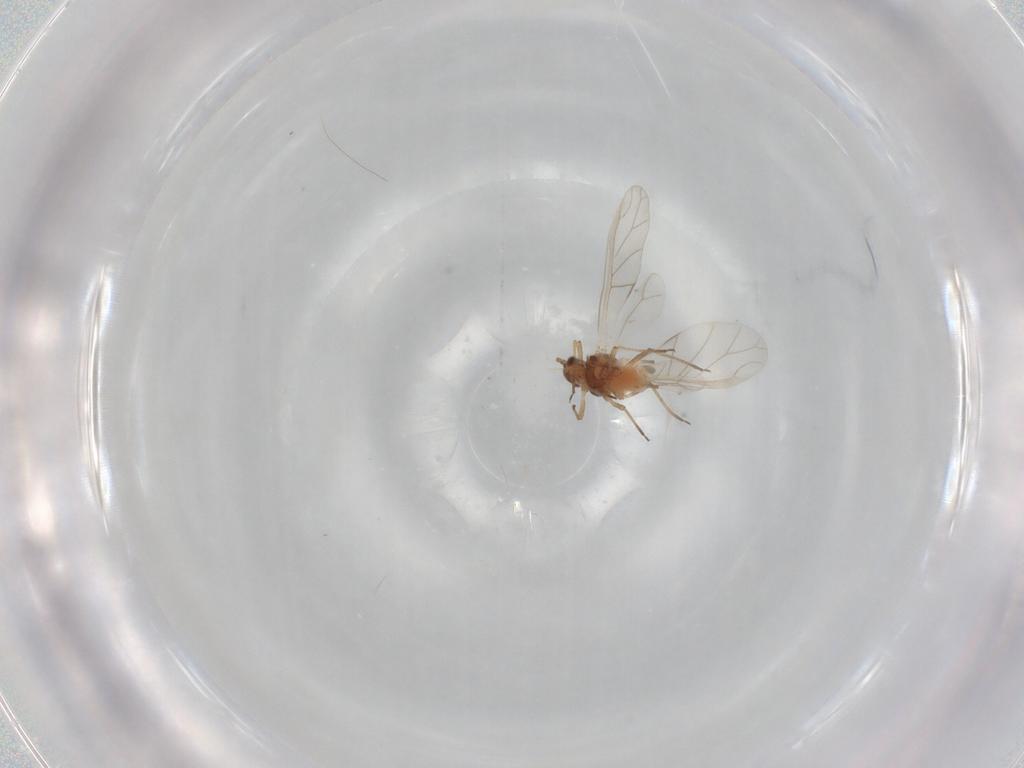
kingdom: Animalia
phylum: Arthropoda
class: Insecta
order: Hemiptera
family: Aphididae
